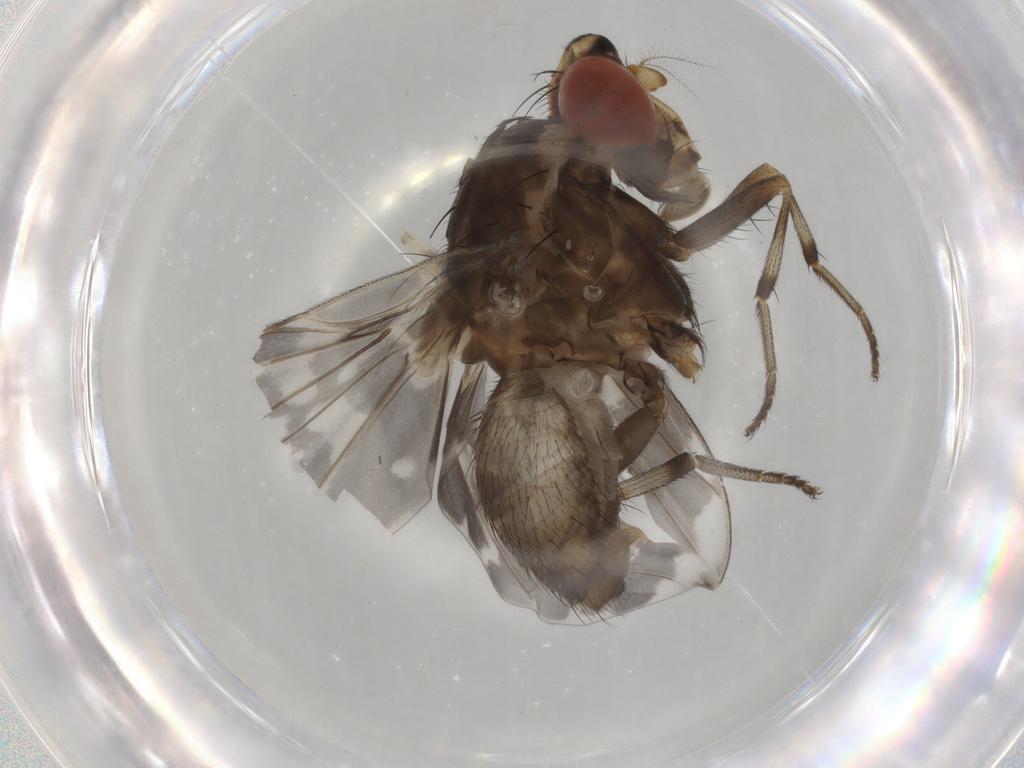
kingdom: Animalia
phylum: Arthropoda
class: Insecta
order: Diptera
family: Cecidomyiidae
